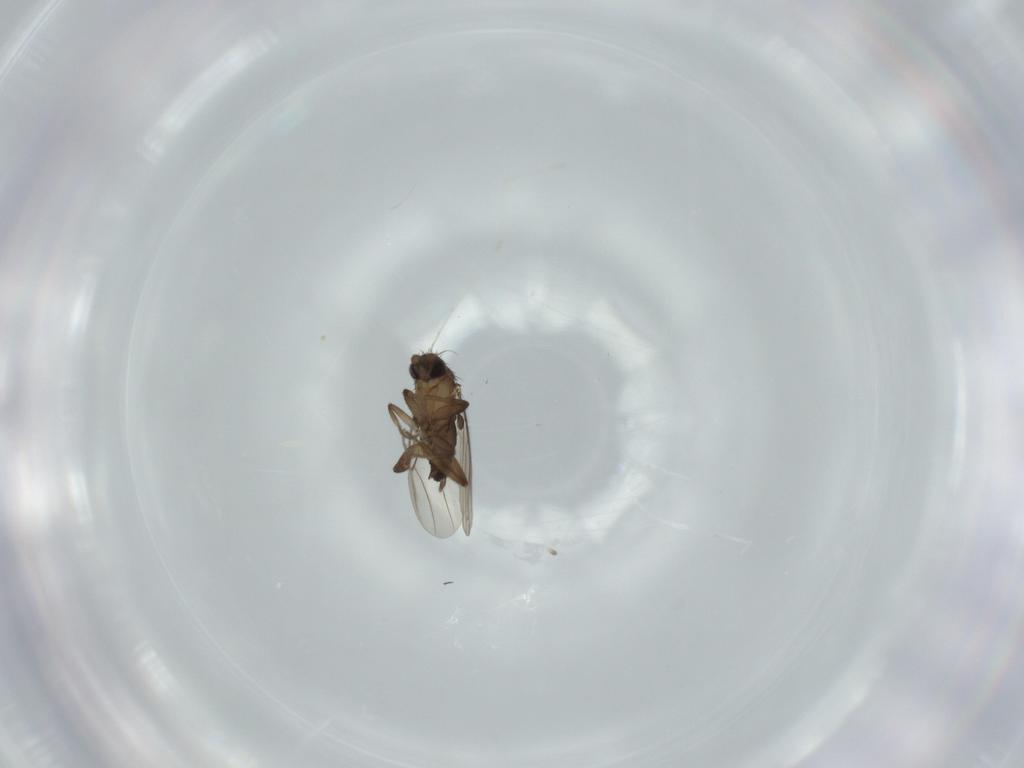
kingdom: Animalia
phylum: Arthropoda
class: Insecta
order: Diptera
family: Cecidomyiidae
